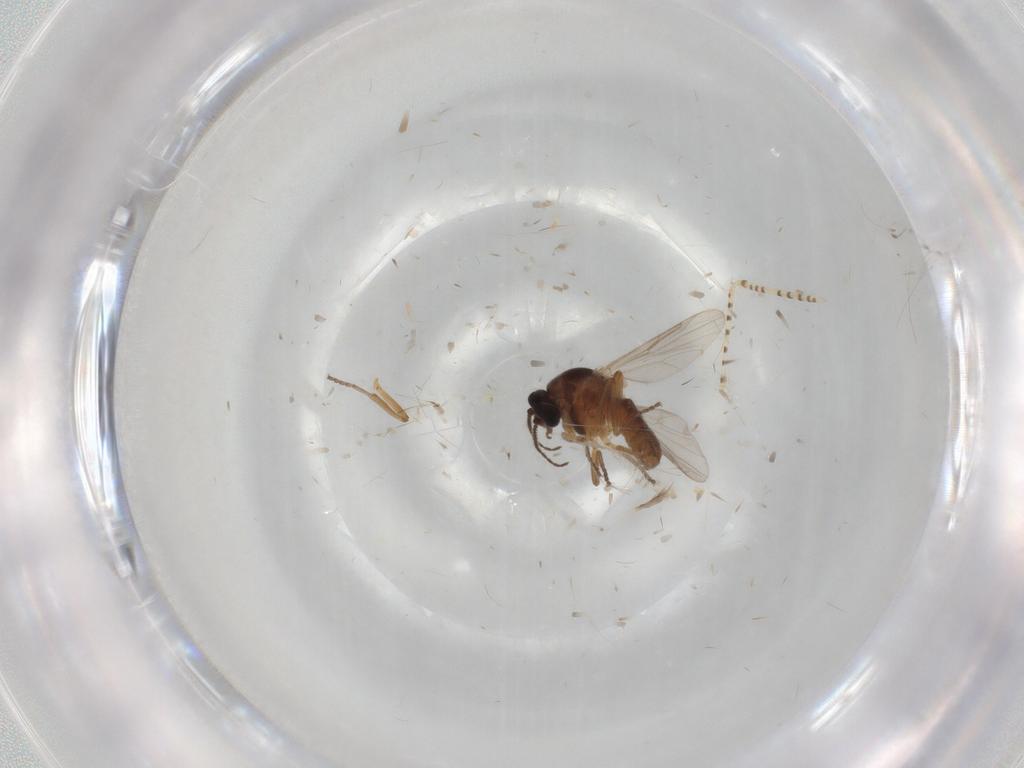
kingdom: Animalia
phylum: Arthropoda
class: Insecta
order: Diptera
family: Ceratopogonidae
